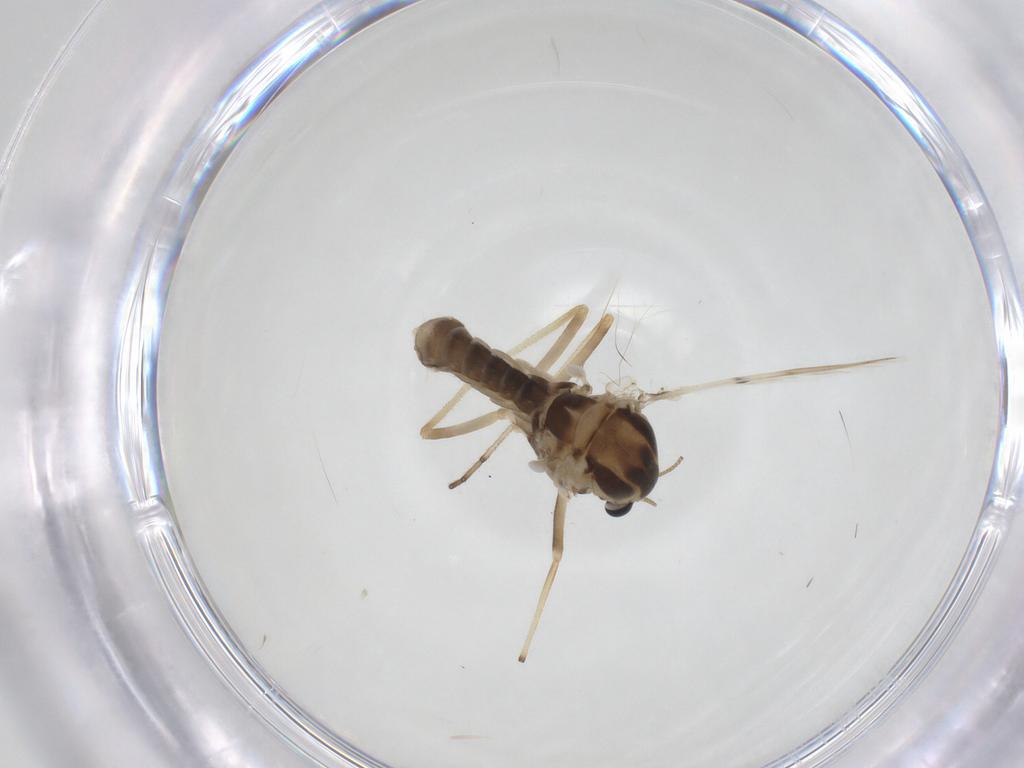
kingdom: Animalia
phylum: Arthropoda
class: Insecta
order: Diptera
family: Chironomidae
